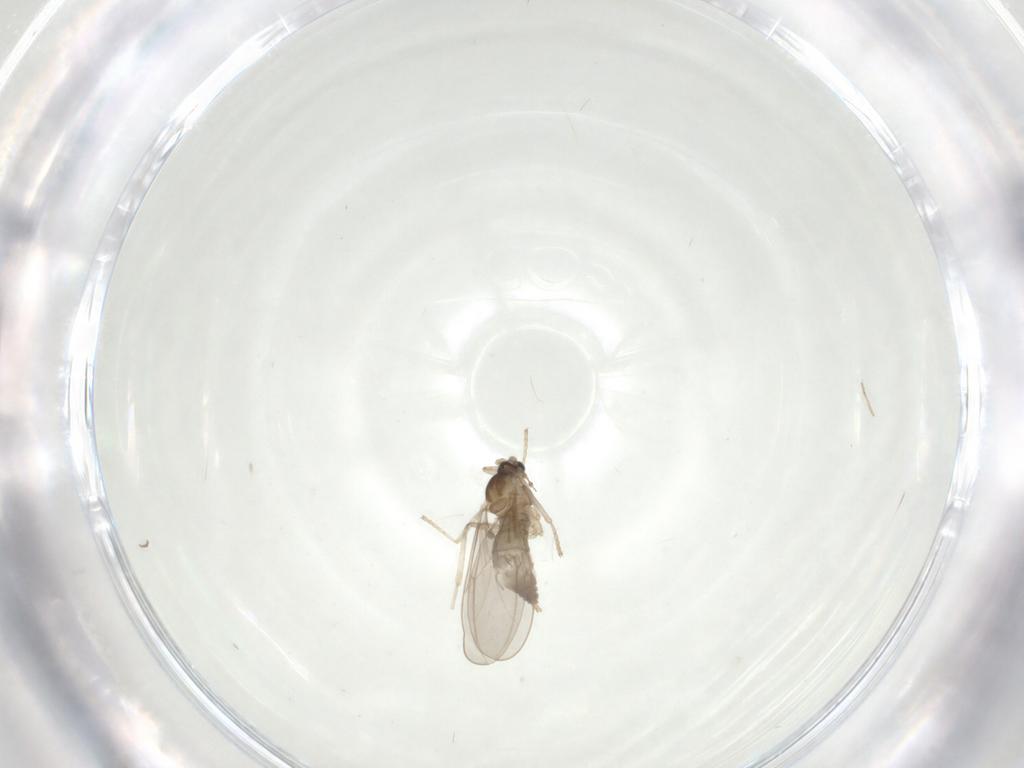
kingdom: Animalia
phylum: Arthropoda
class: Insecta
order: Diptera
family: Cecidomyiidae
